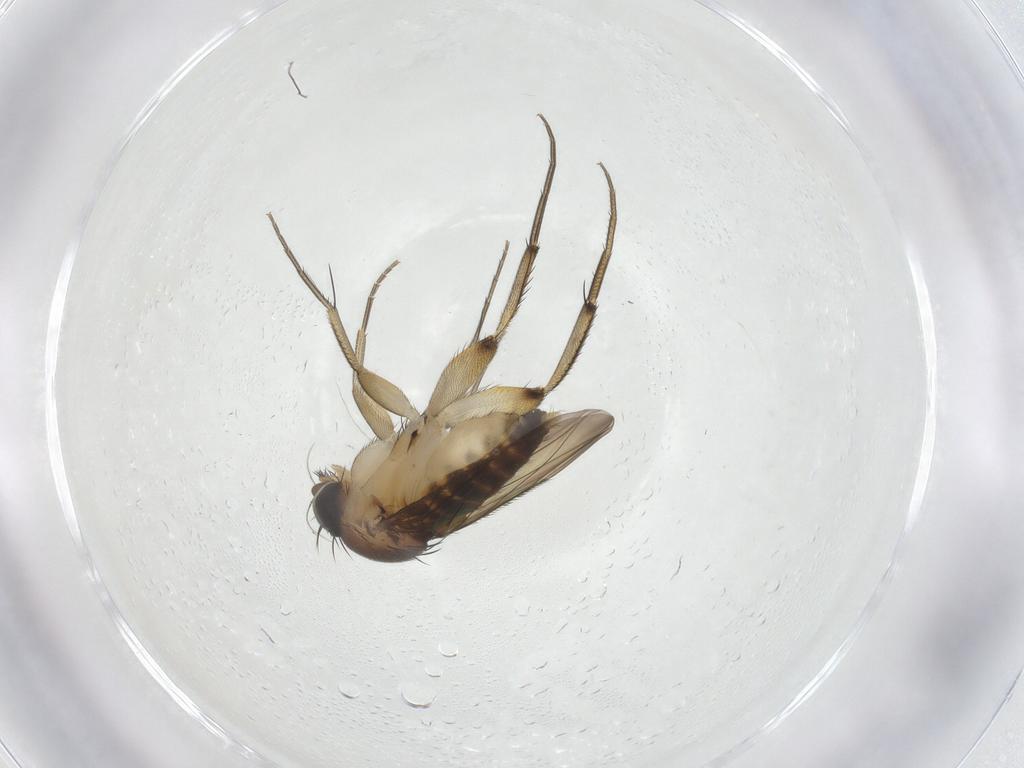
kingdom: Animalia
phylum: Arthropoda
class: Insecta
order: Diptera
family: Phoridae
